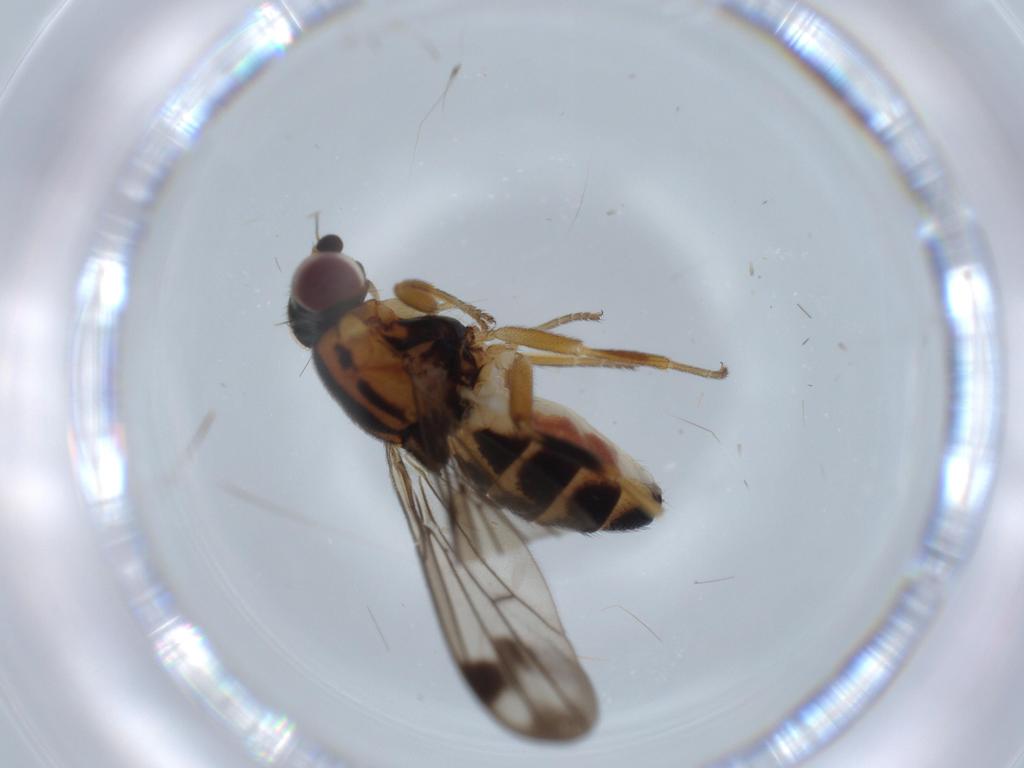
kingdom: Animalia
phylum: Arthropoda
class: Insecta
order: Diptera
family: Chloropidae
